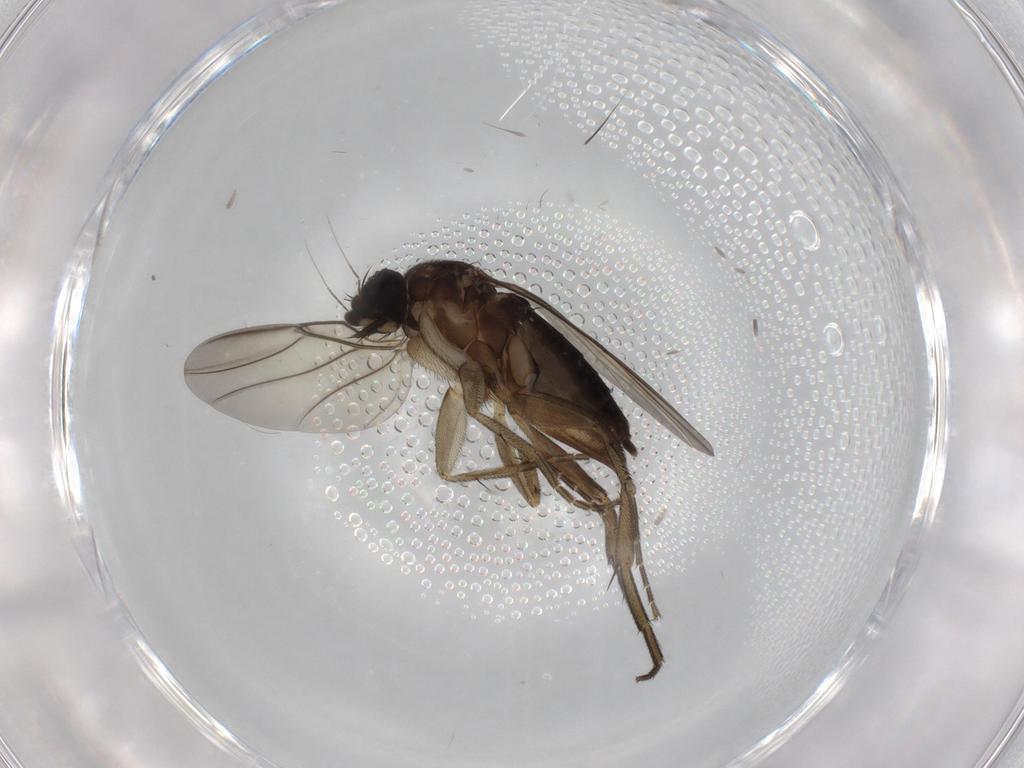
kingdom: Animalia
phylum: Arthropoda
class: Insecta
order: Diptera
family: Phoridae
